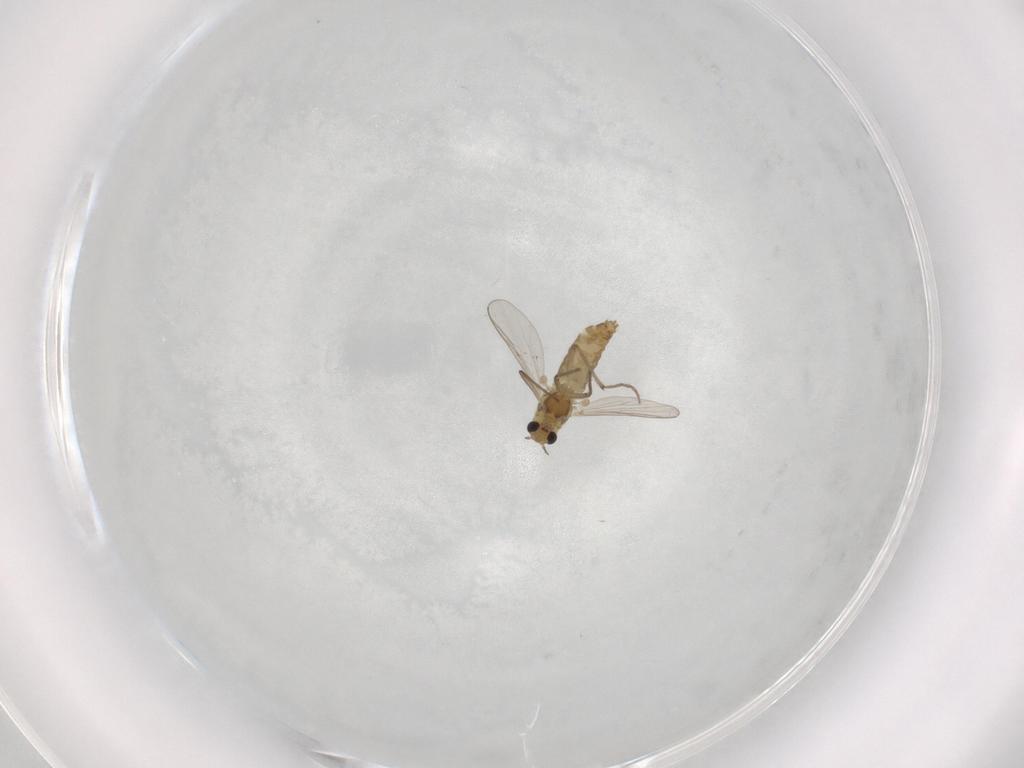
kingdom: Animalia
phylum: Arthropoda
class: Insecta
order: Diptera
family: Chironomidae
